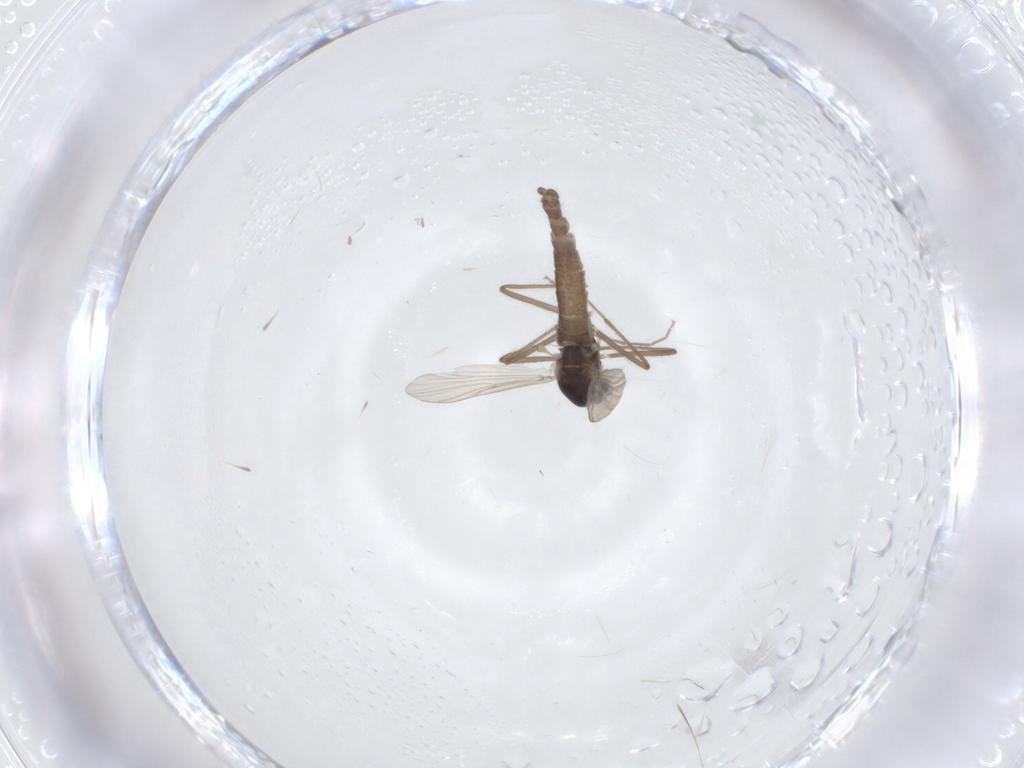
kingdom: Animalia
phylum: Arthropoda
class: Insecta
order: Diptera
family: Chironomidae
